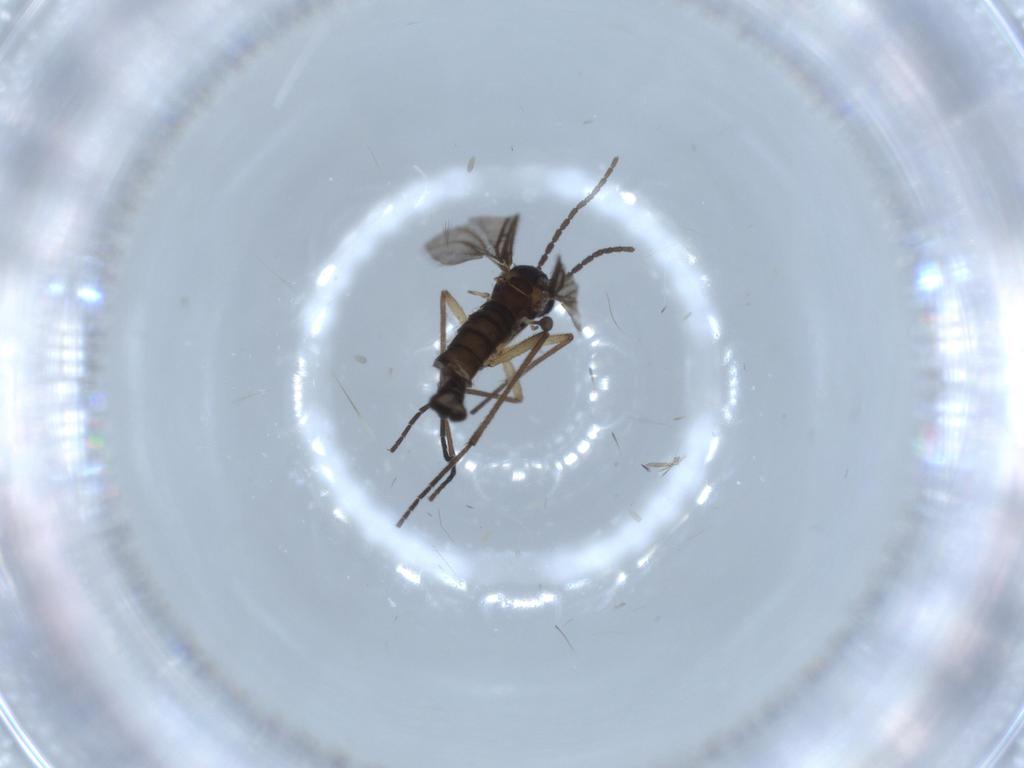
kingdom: Animalia
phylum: Arthropoda
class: Insecta
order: Diptera
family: Sciaridae
